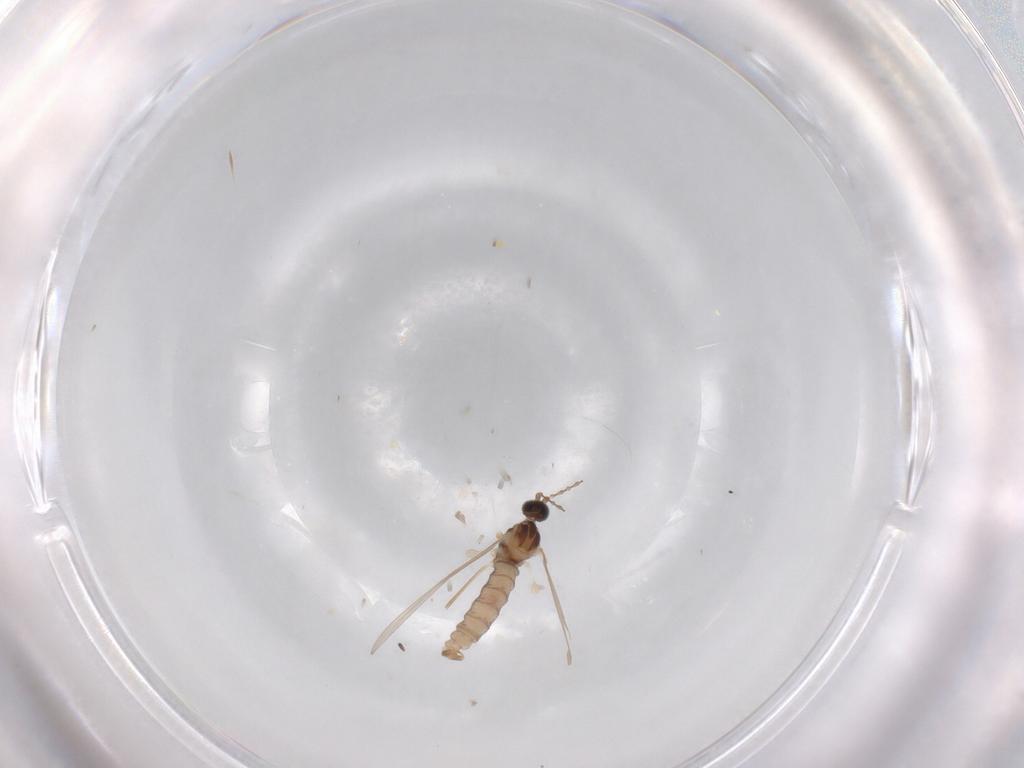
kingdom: Animalia
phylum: Arthropoda
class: Insecta
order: Diptera
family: Cecidomyiidae
